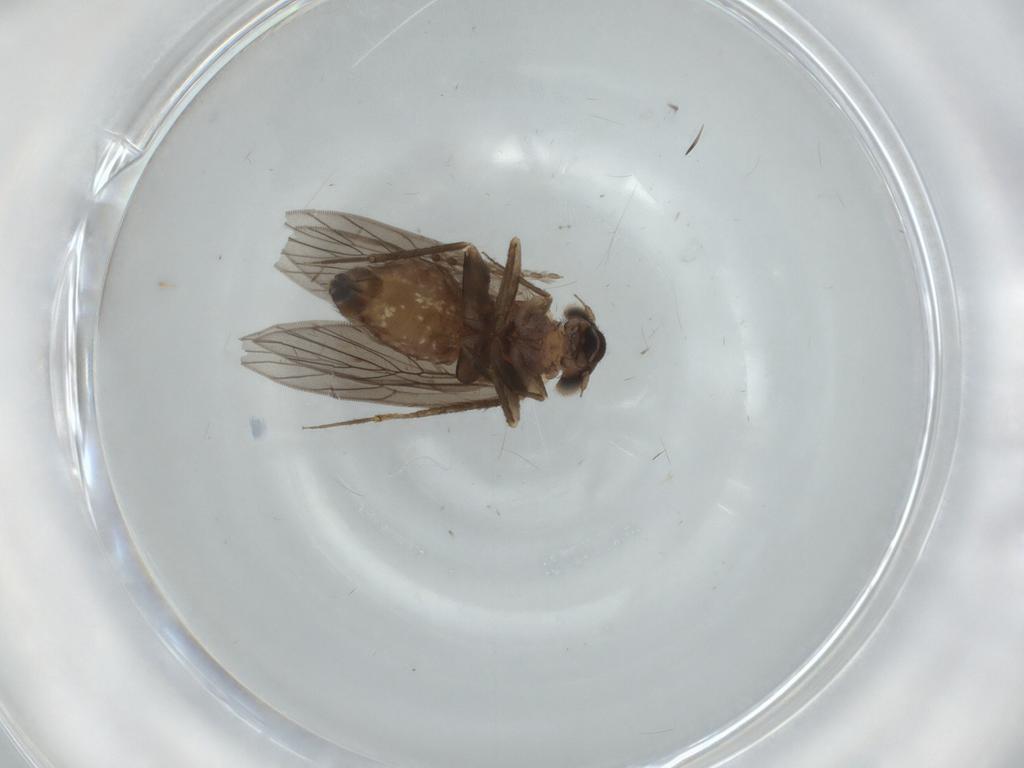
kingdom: Animalia
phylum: Arthropoda
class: Insecta
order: Psocodea
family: Lepidopsocidae
